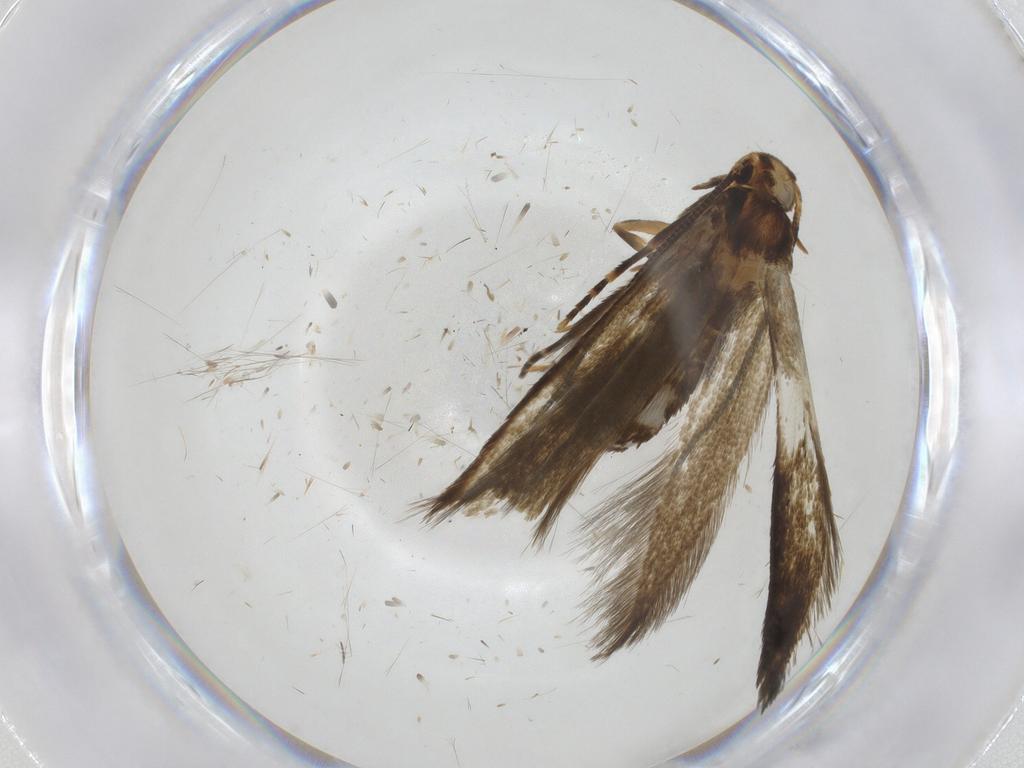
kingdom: Animalia
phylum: Arthropoda
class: Insecta
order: Lepidoptera
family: Tineidae
